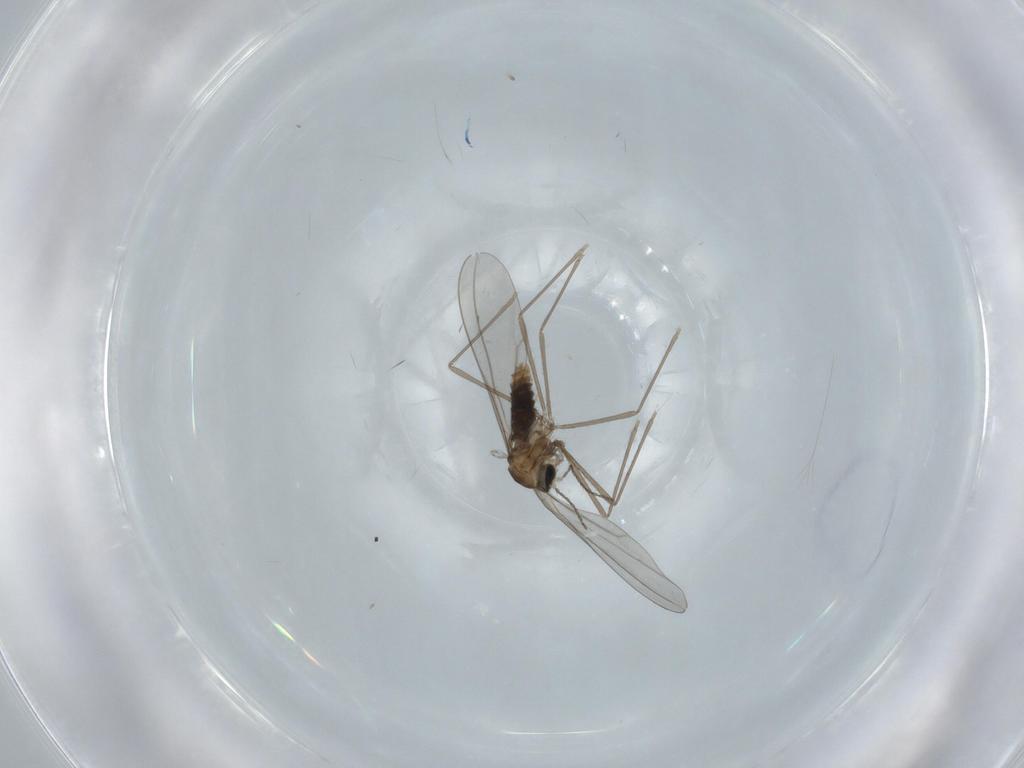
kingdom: Animalia
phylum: Arthropoda
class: Insecta
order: Diptera
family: Cecidomyiidae
